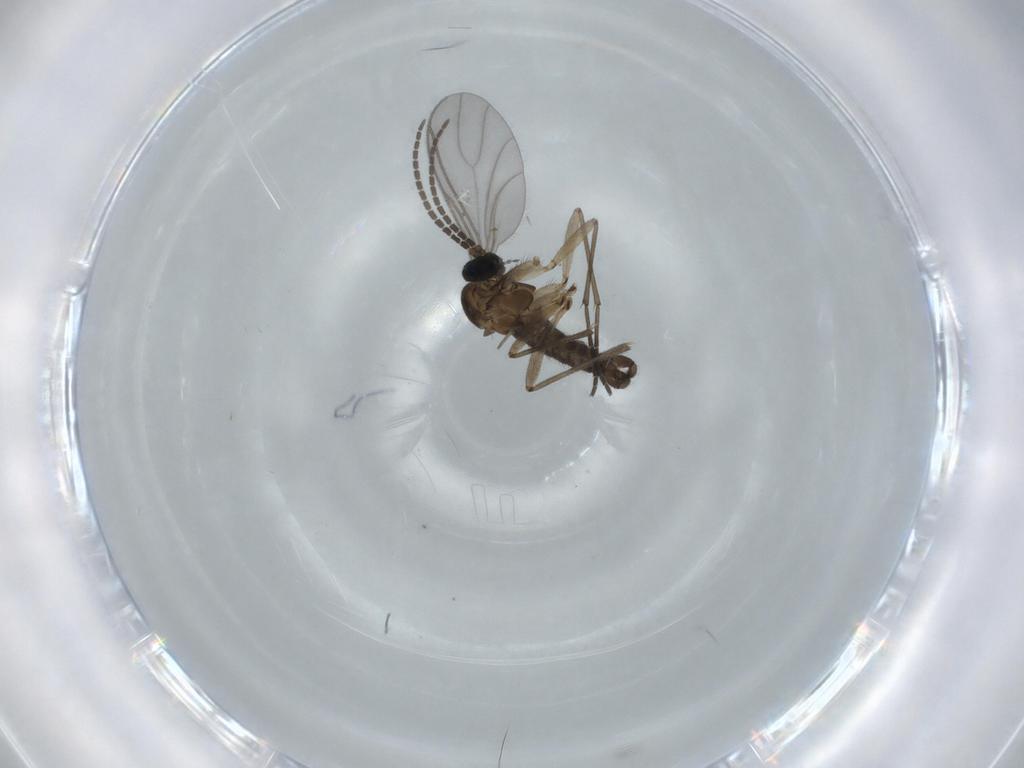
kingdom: Animalia
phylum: Arthropoda
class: Insecta
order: Diptera
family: Sciaridae
